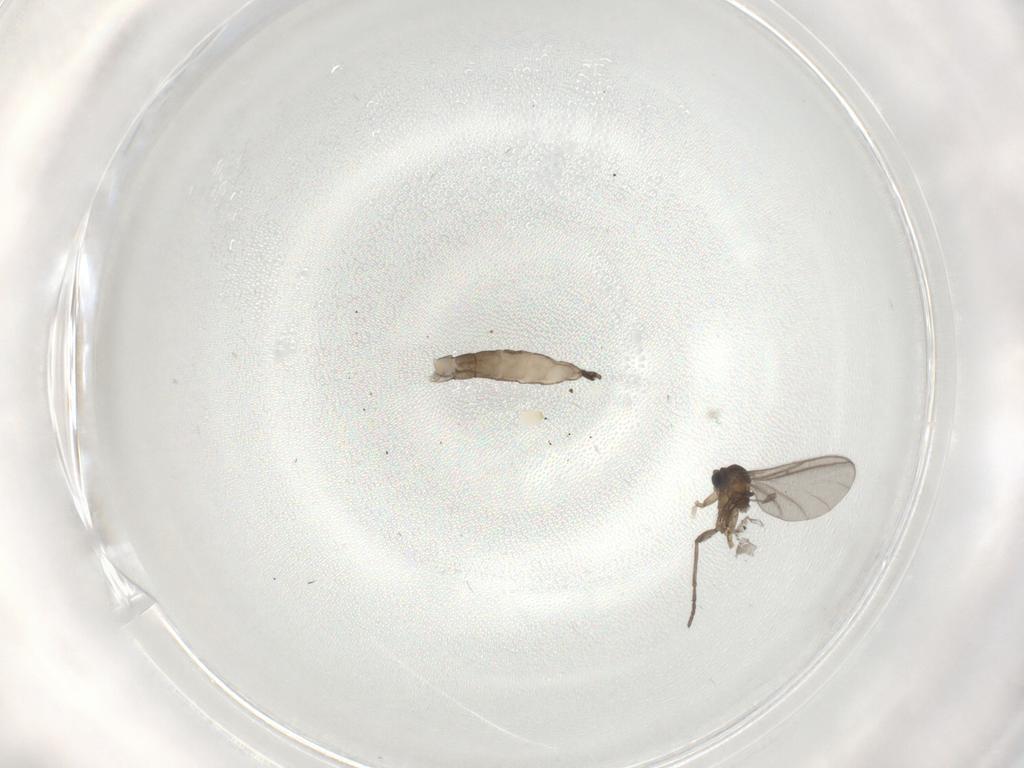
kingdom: Animalia
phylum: Arthropoda
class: Insecta
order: Diptera
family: Sciaridae
